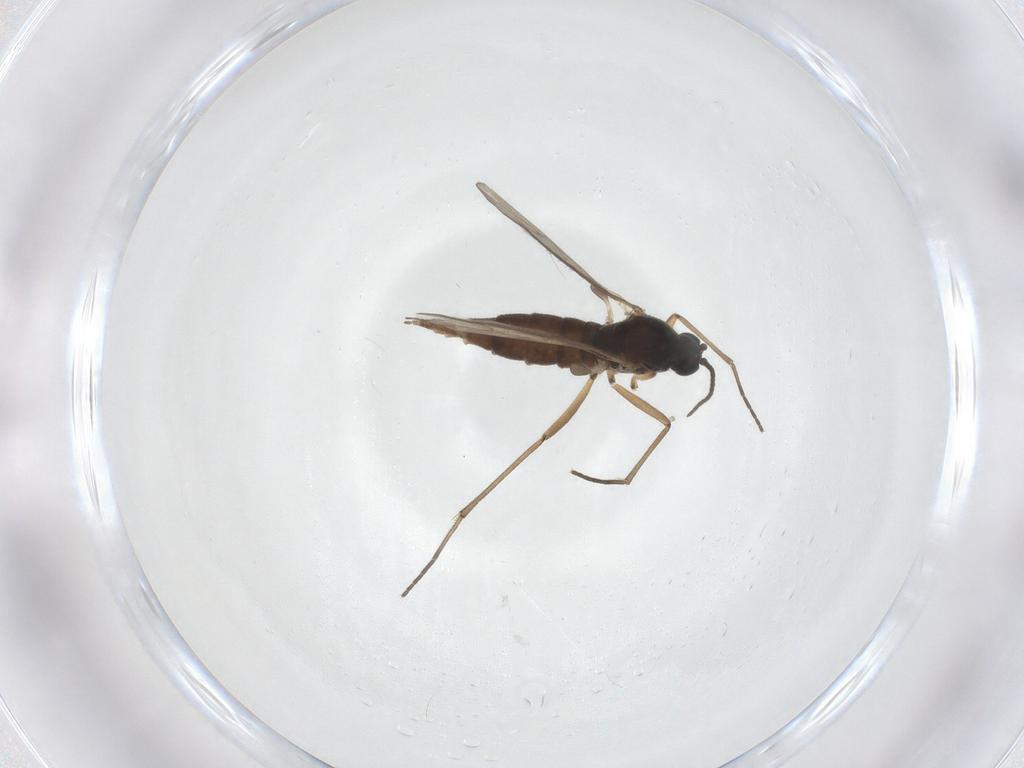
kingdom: Animalia
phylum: Arthropoda
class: Insecta
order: Diptera
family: Sciaridae
